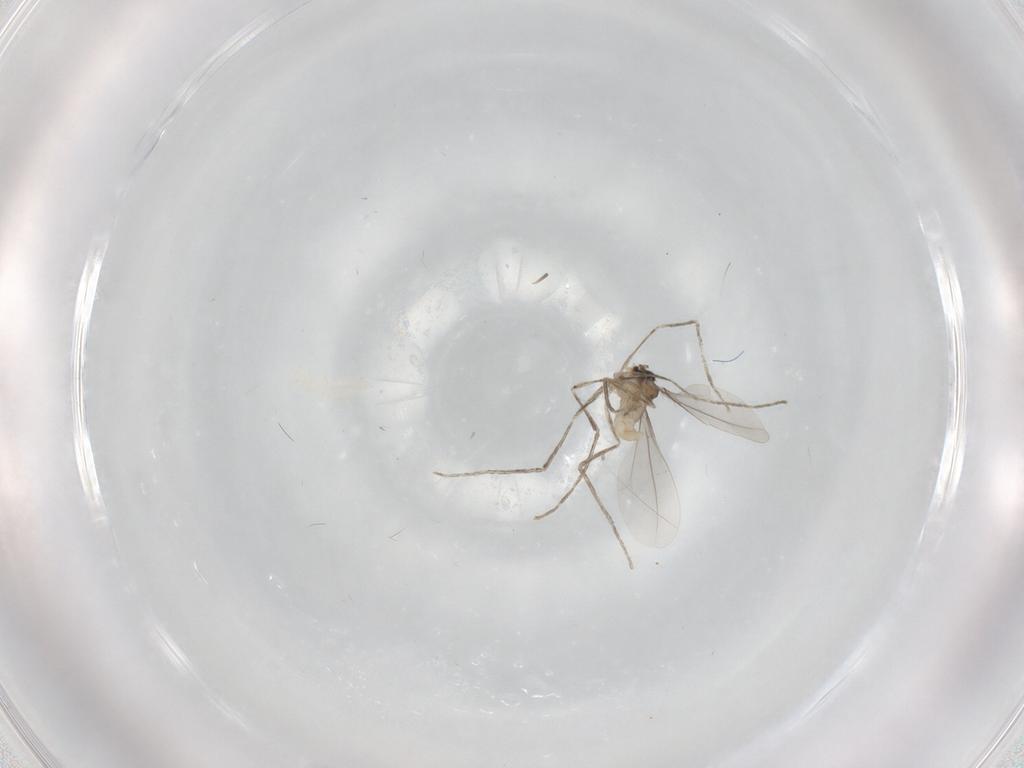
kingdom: Animalia
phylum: Arthropoda
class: Insecta
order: Diptera
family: Cecidomyiidae
